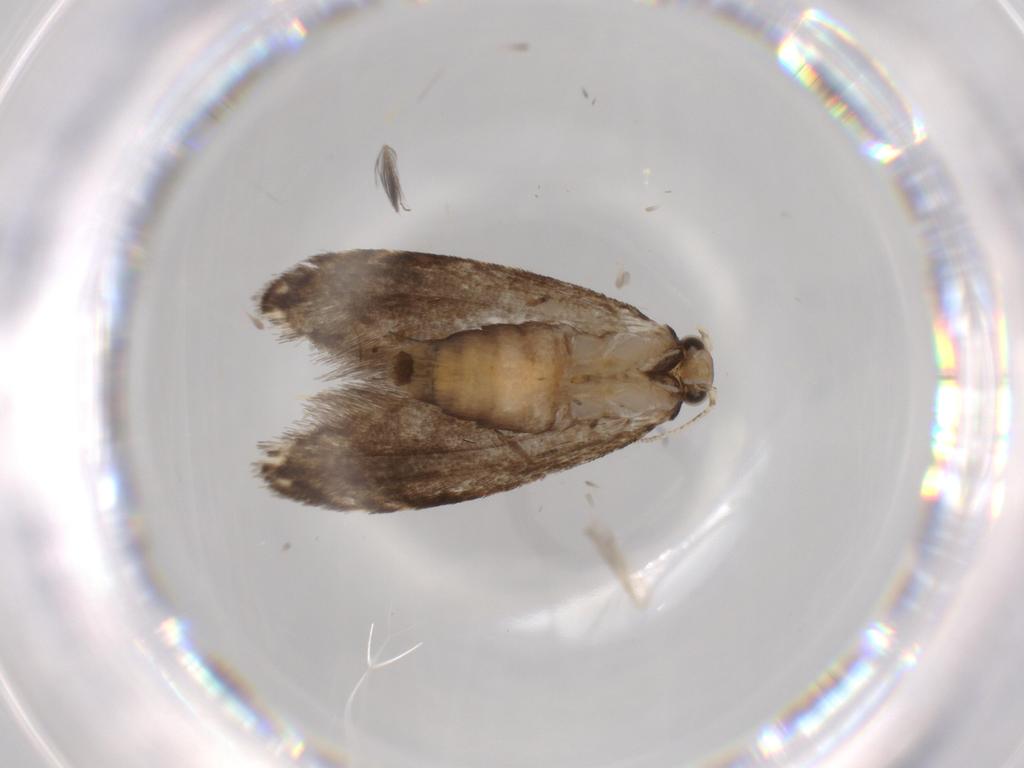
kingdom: Animalia
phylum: Arthropoda
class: Insecta
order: Lepidoptera
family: Tineidae
